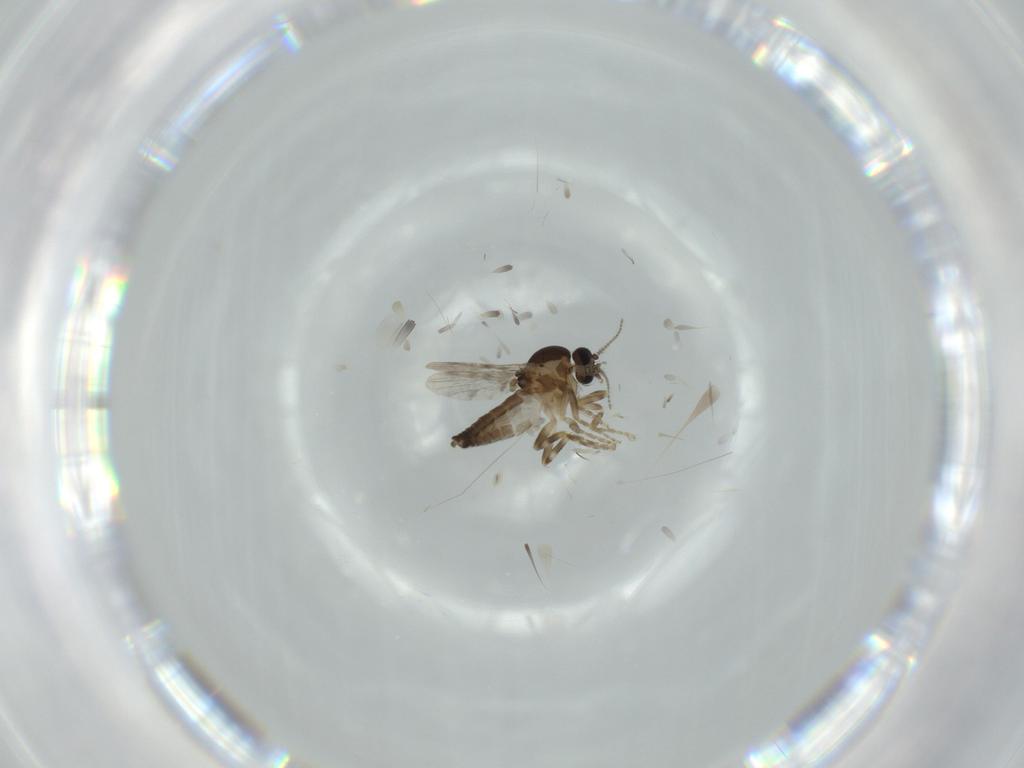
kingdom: Animalia
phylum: Arthropoda
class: Insecta
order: Diptera
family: Ceratopogonidae
